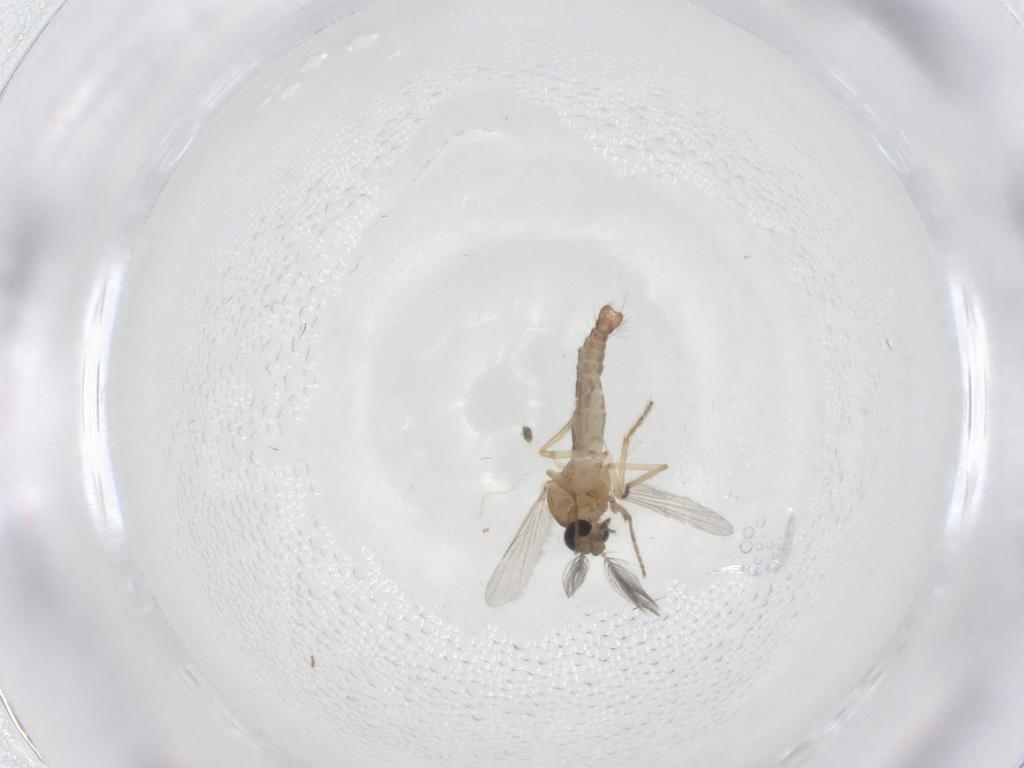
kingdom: Animalia
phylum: Arthropoda
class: Insecta
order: Diptera
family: Ceratopogonidae
